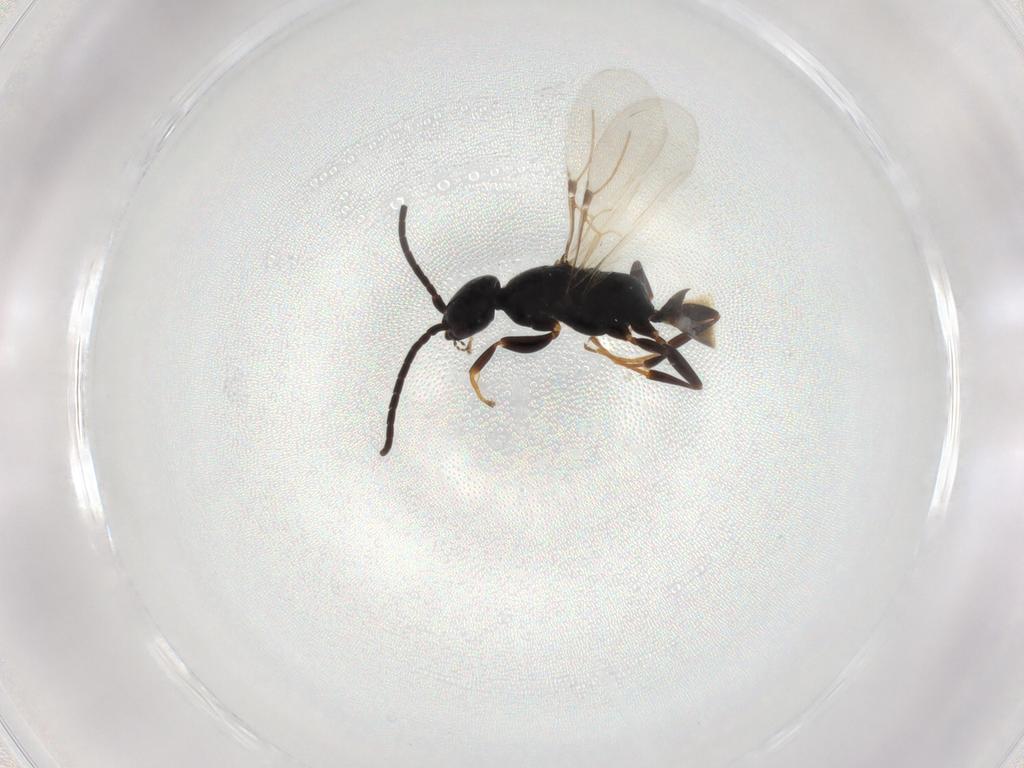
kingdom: Animalia
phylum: Arthropoda
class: Insecta
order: Hymenoptera
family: Bethylidae
